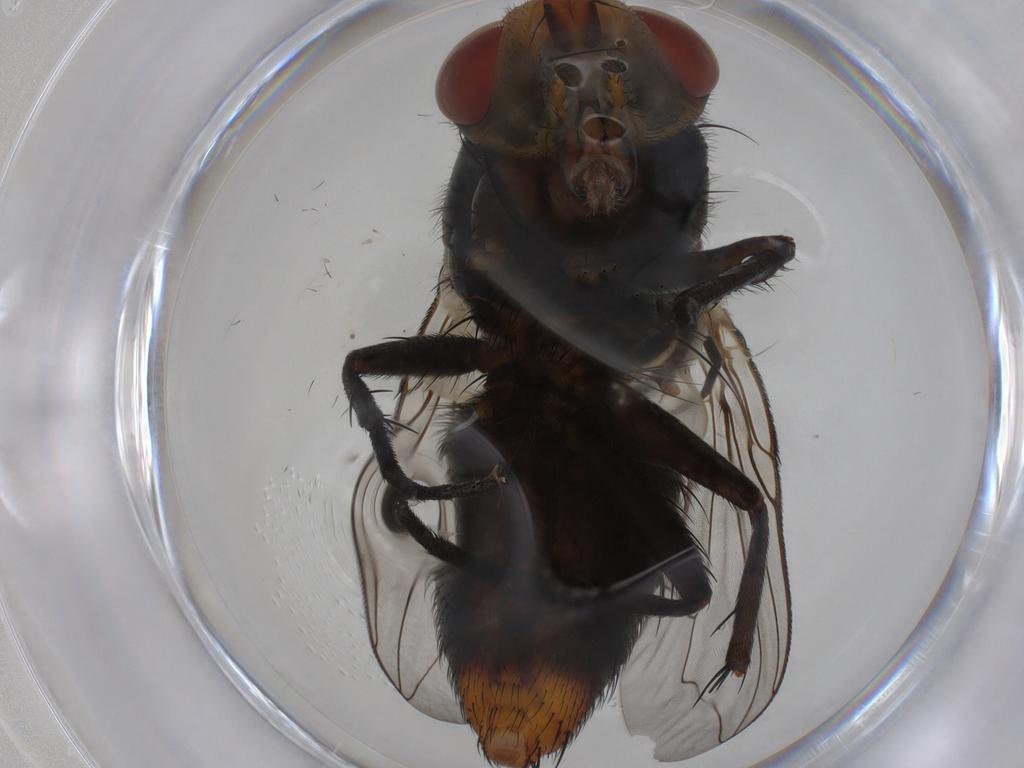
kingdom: Animalia
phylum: Arthropoda
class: Insecta
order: Diptera
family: Sarcophagidae
